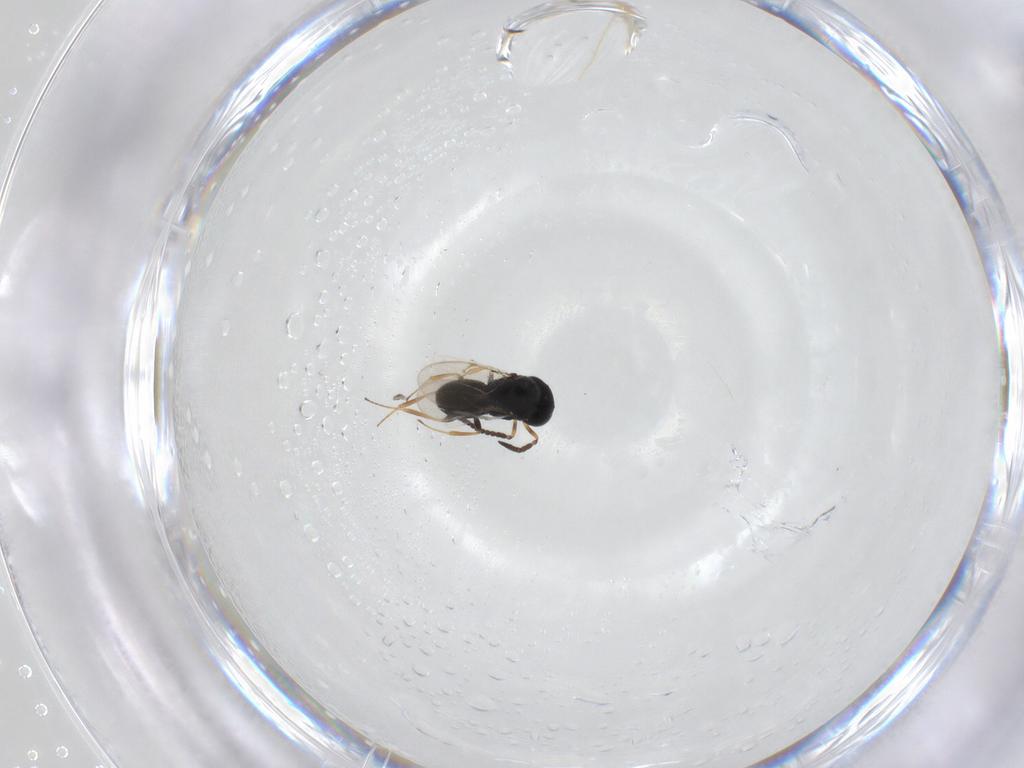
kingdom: Animalia
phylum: Arthropoda
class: Insecta
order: Hymenoptera
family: Scelionidae
